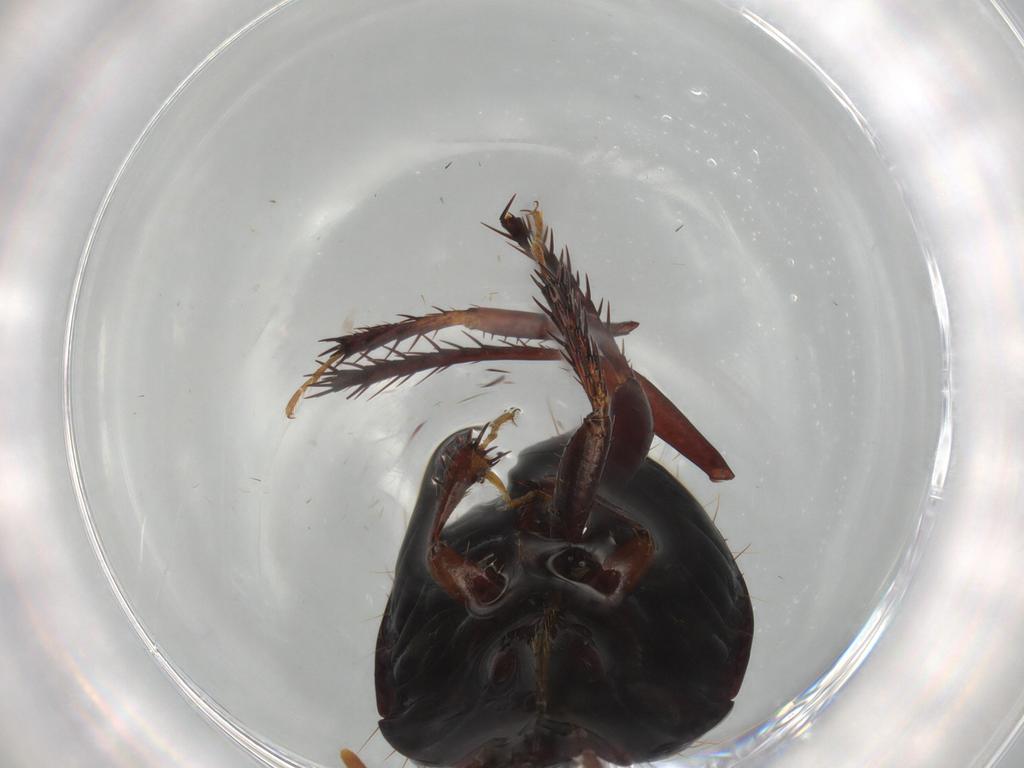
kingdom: Animalia
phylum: Arthropoda
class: Insecta
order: Hemiptera
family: Cydnidae
